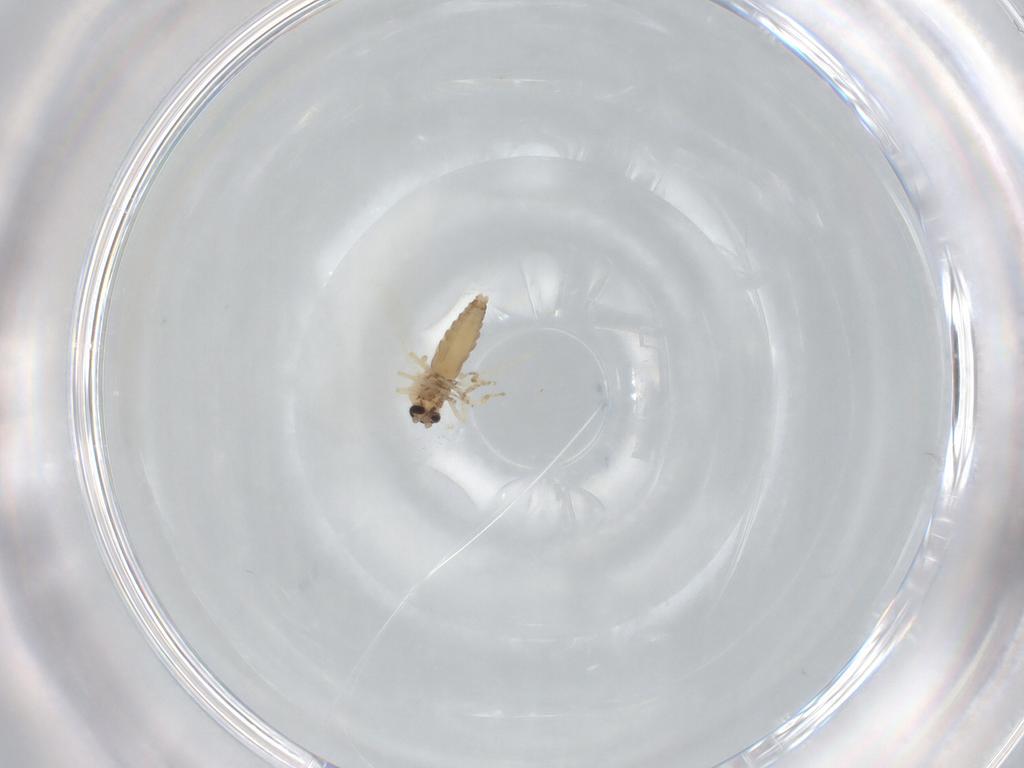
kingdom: Animalia
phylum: Arthropoda
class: Insecta
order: Diptera
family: Ceratopogonidae
